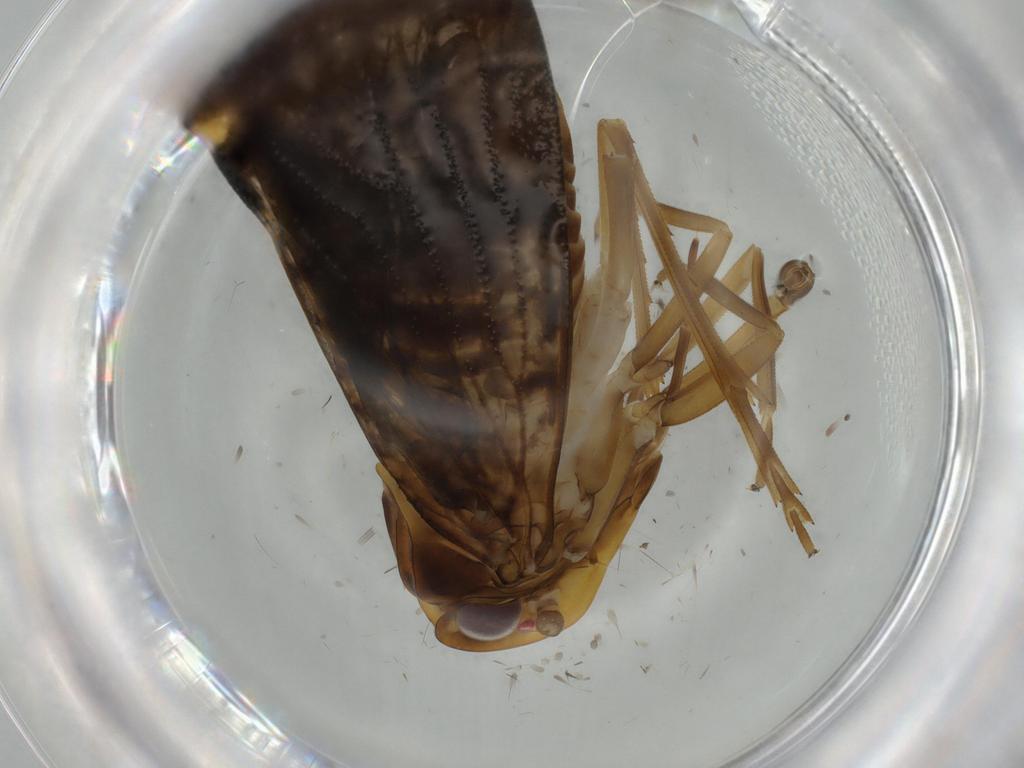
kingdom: Animalia
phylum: Arthropoda
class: Insecta
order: Hemiptera
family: Cixiidae
